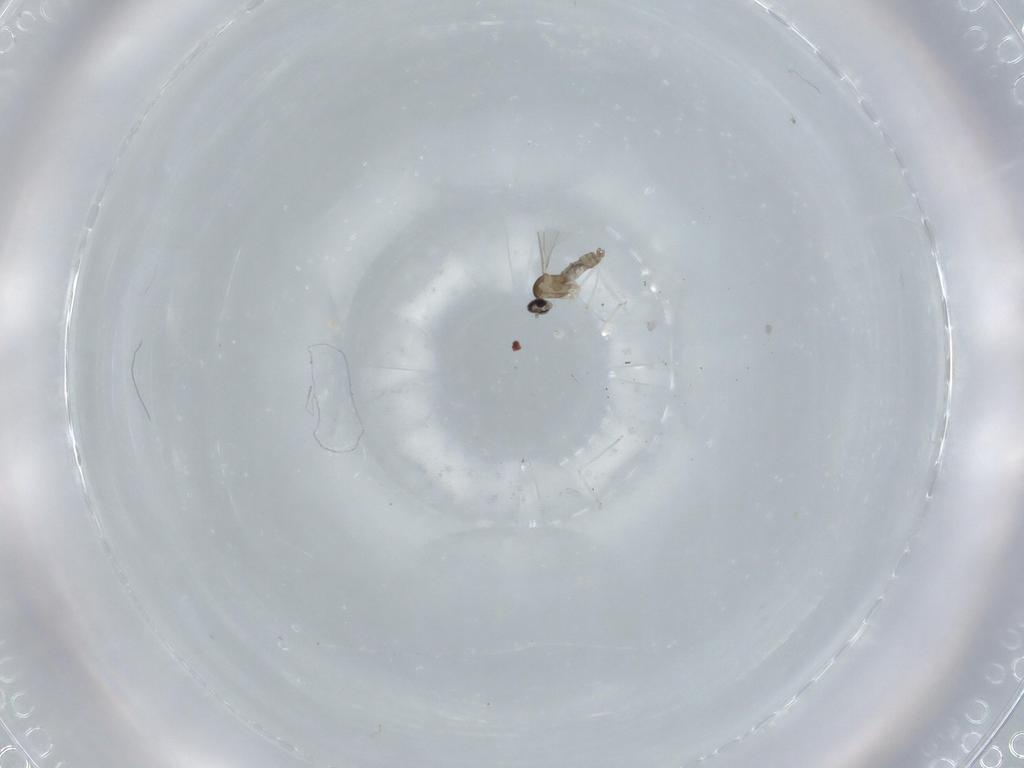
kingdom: Animalia
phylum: Arthropoda
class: Insecta
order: Diptera
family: Cecidomyiidae
